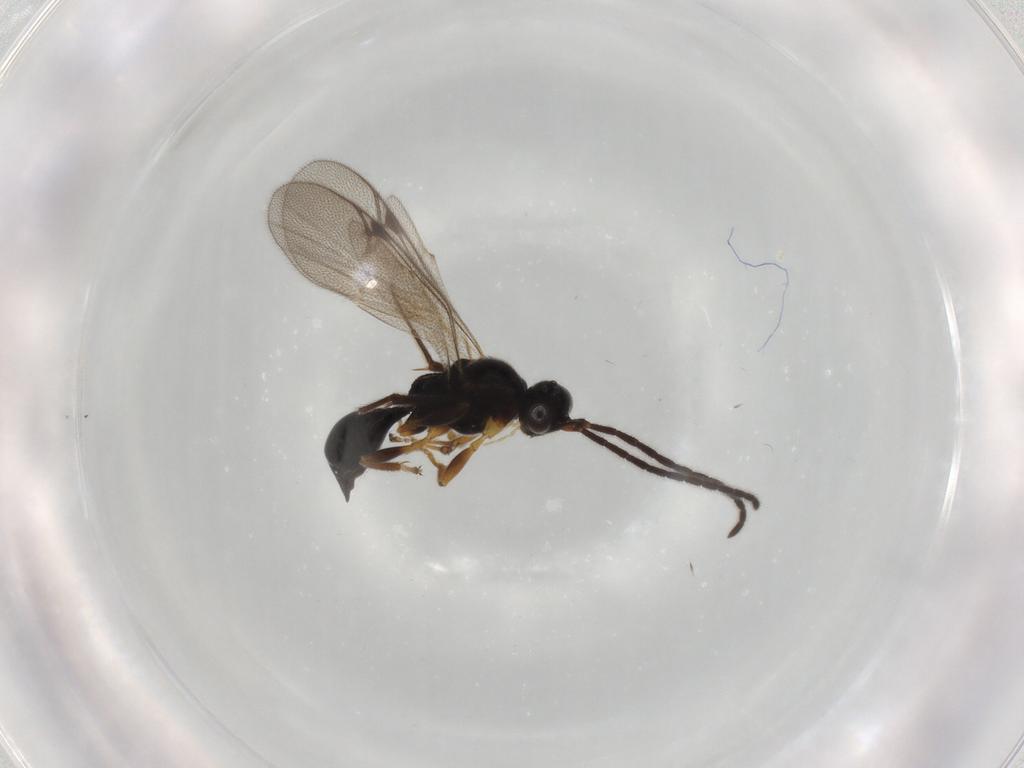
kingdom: Animalia
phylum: Arthropoda
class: Insecta
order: Hymenoptera
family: Proctotrupidae
